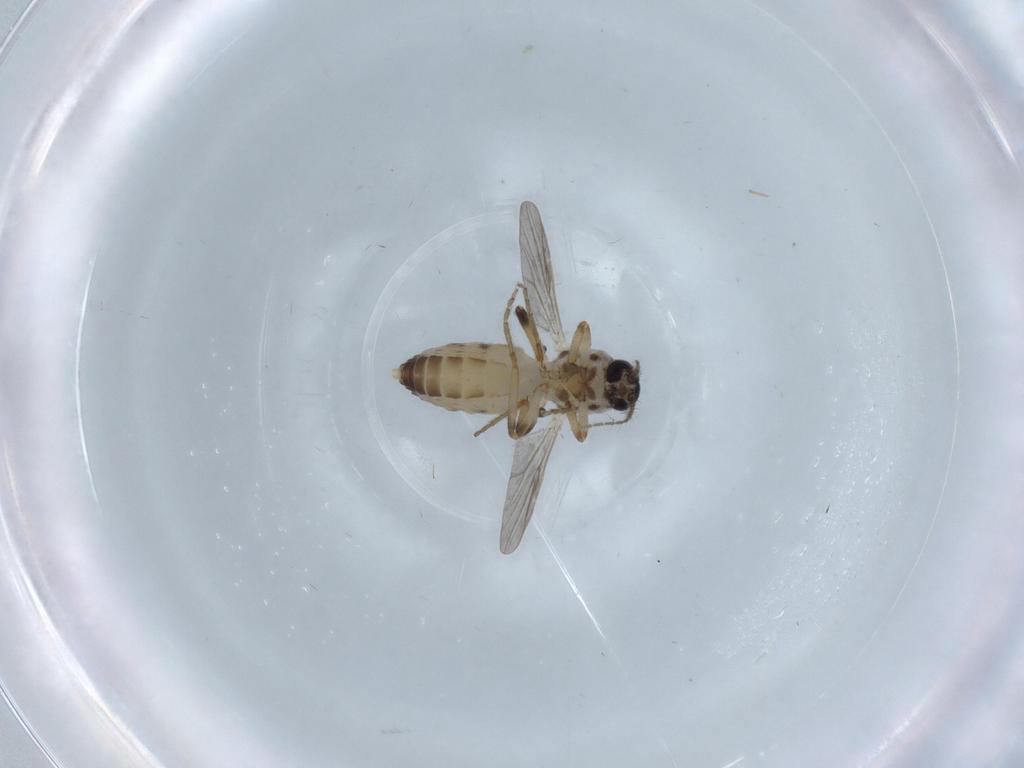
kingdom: Animalia
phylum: Arthropoda
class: Insecta
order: Diptera
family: Ceratopogonidae
